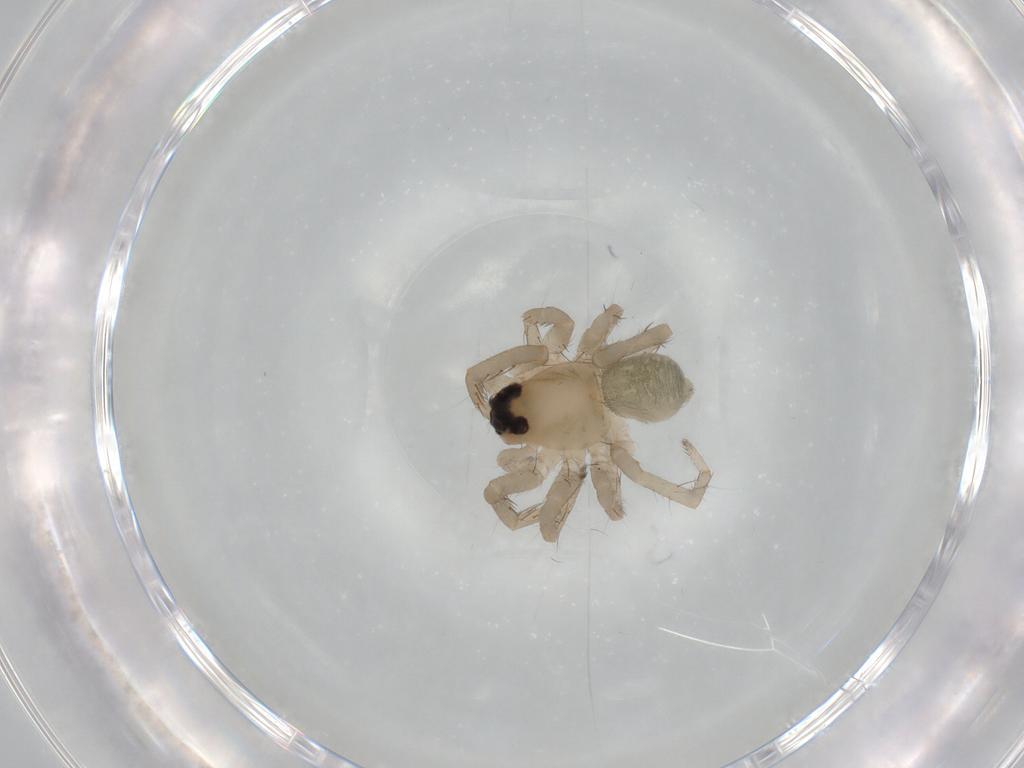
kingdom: Animalia
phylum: Arthropoda
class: Arachnida
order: Araneae
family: Lycosidae
